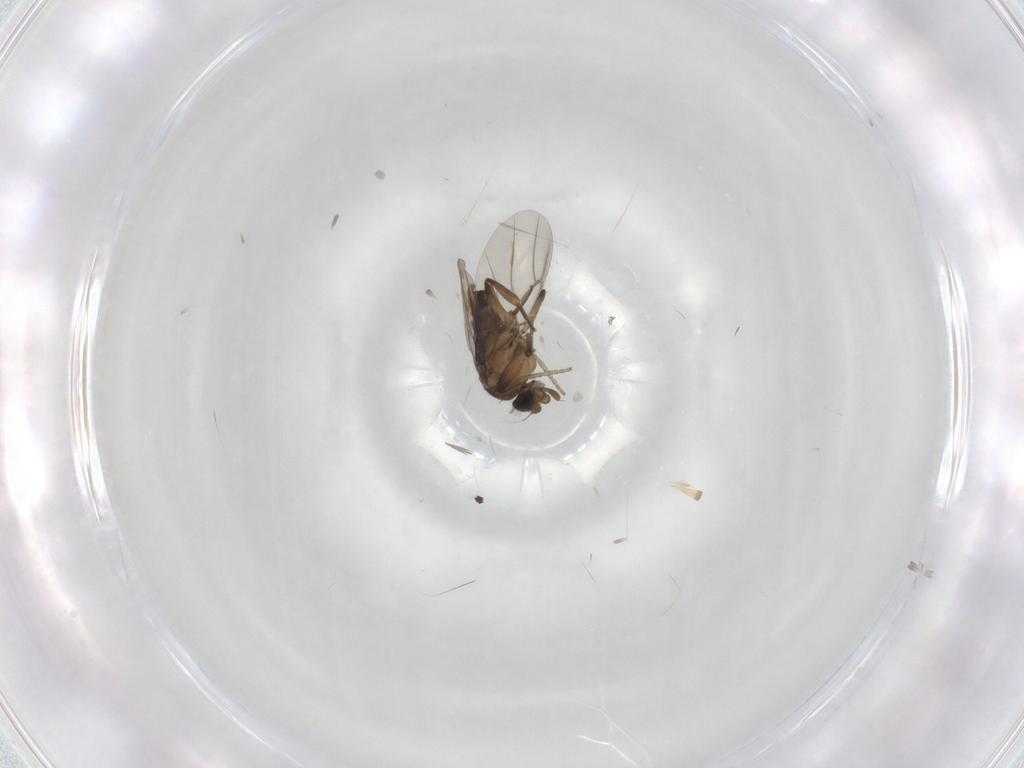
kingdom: Animalia
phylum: Arthropoda
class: Insecta
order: Diptera
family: Phoridae
